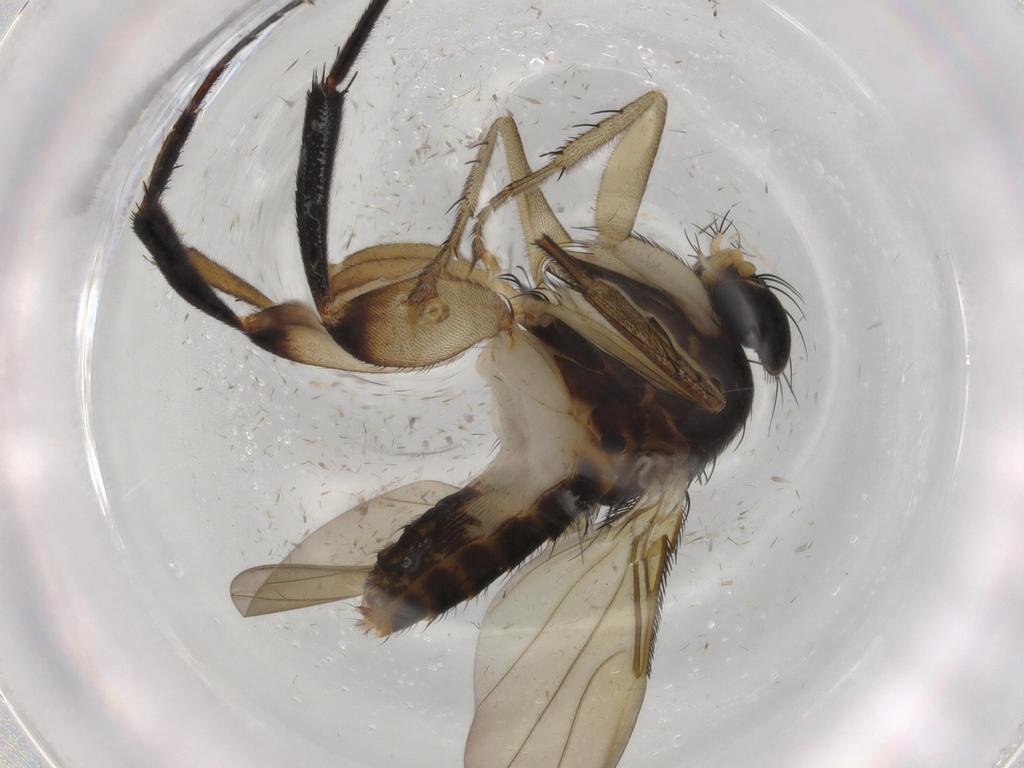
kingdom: Animalia
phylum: Arthropoda
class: Insecta
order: Diptera
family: Phoridae
